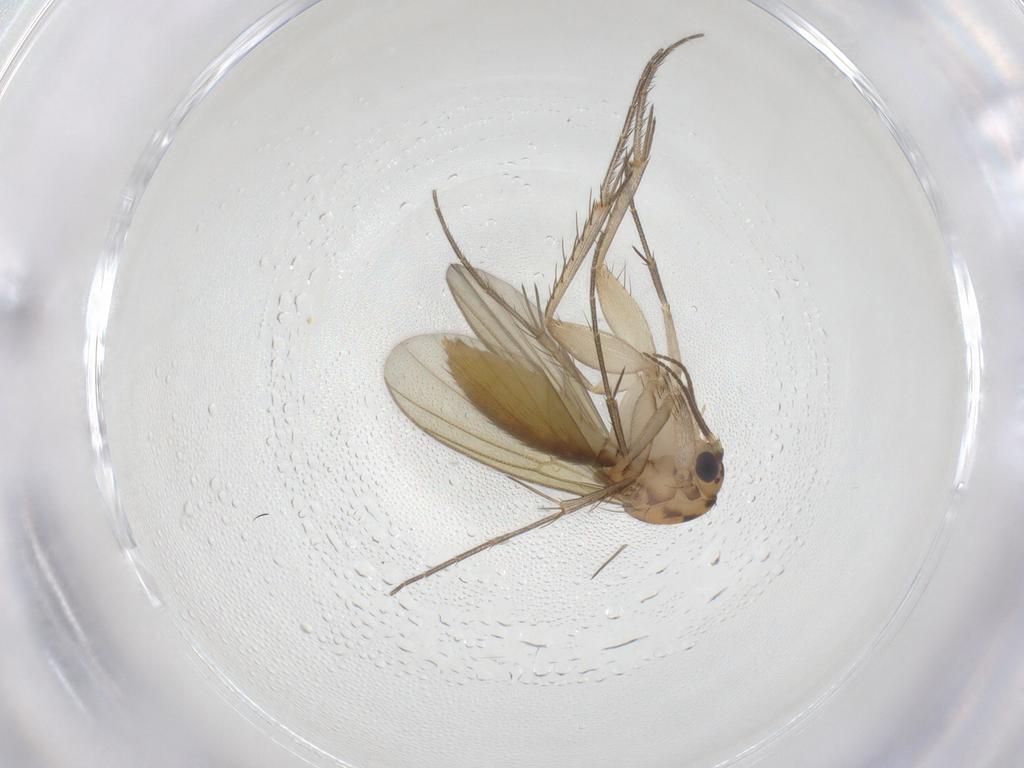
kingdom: Animalia
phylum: Arthropoda
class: Insecta
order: Diptera
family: Mycetophilidae
